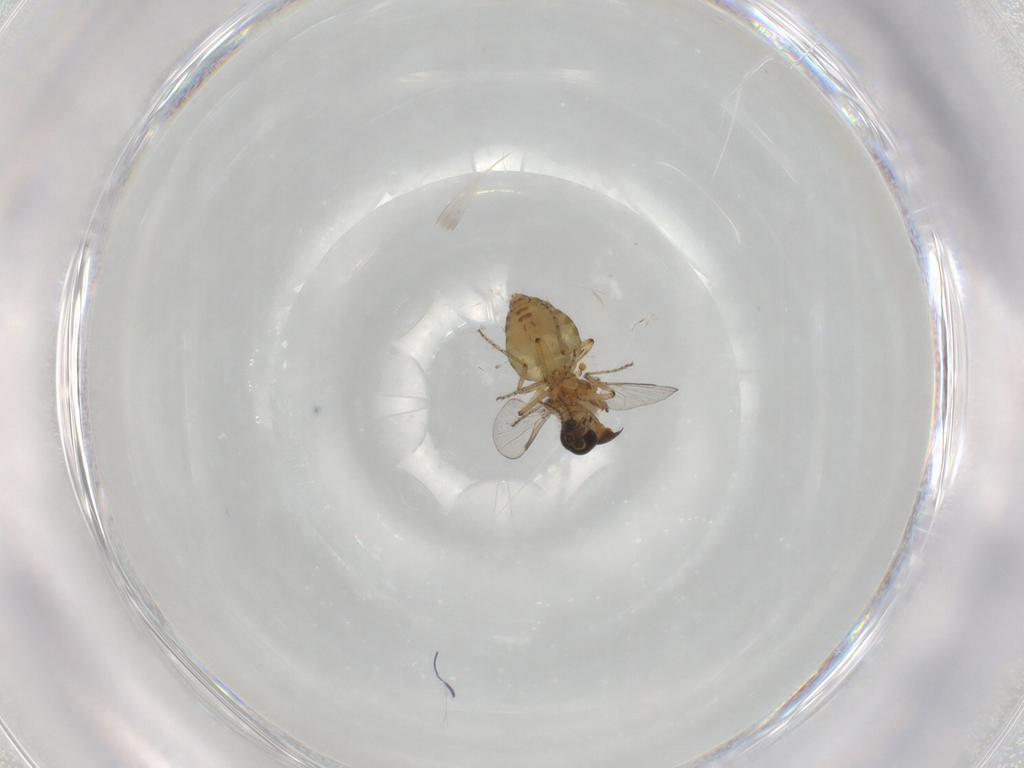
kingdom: Animalia
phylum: Arthropoda
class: Insecta
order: Diptera
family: Ceratopogonidae
